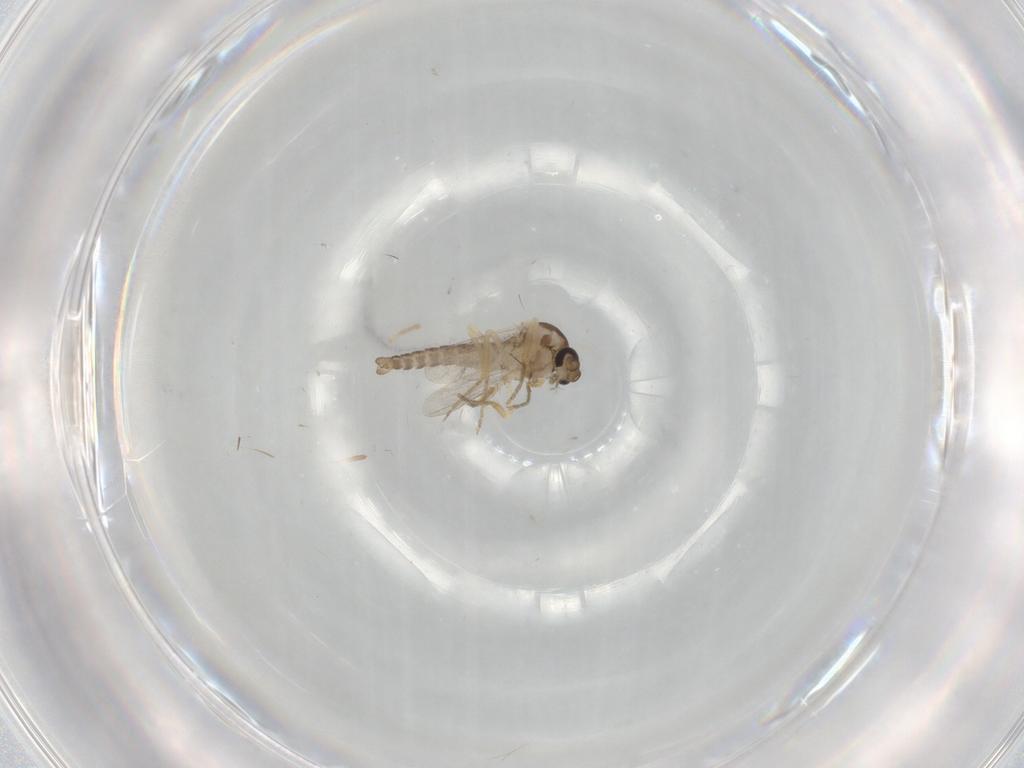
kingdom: Animalia
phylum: Arthropoda
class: Insecta
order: Diptera
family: Ceratopogonidae
